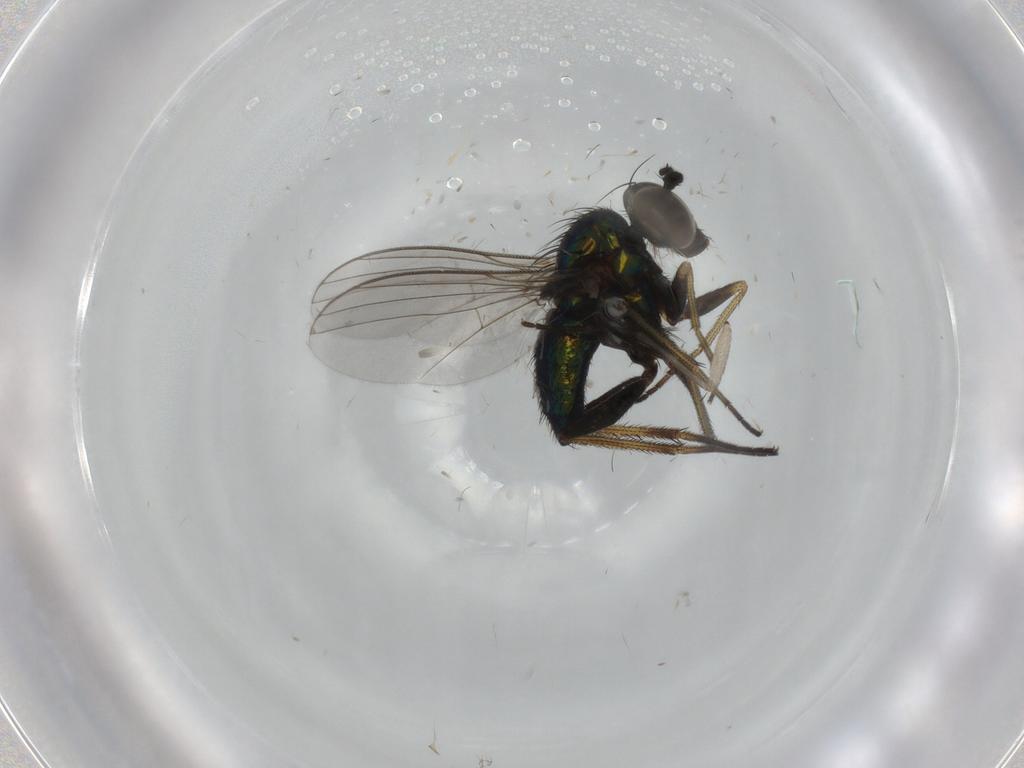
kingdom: Animalia
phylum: Arthropoda
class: Insecta
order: Diptera
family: Sciaridae
